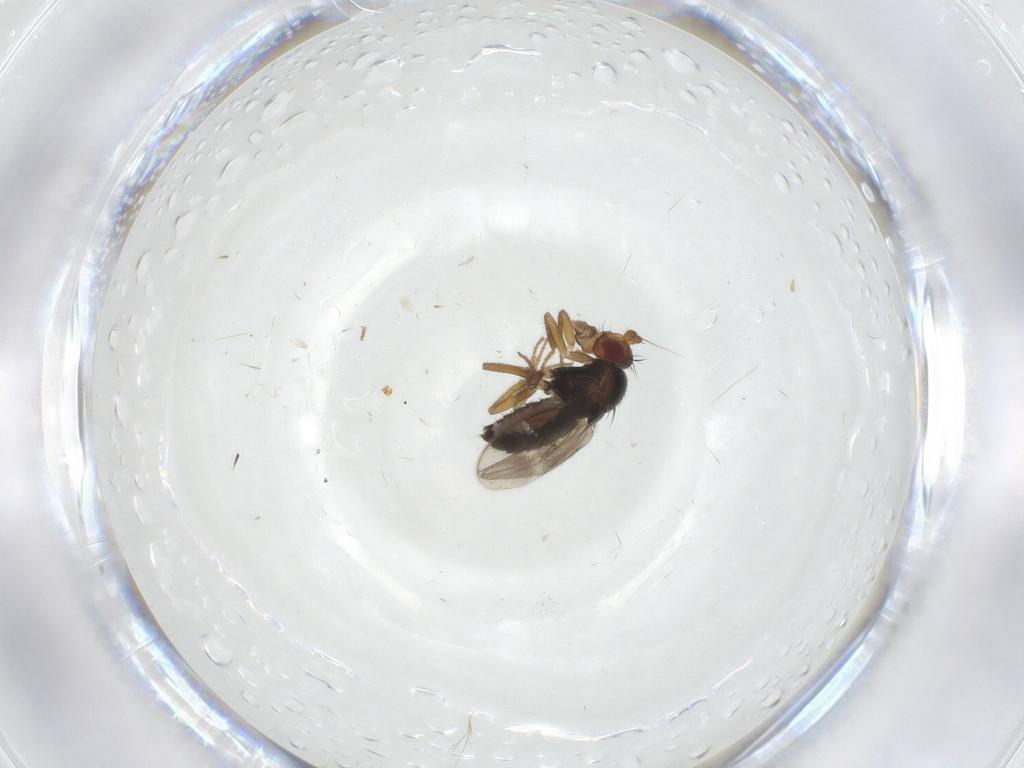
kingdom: Animalia
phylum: Arthropoda
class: Insecta
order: Diptera
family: Sphaeroceridae
